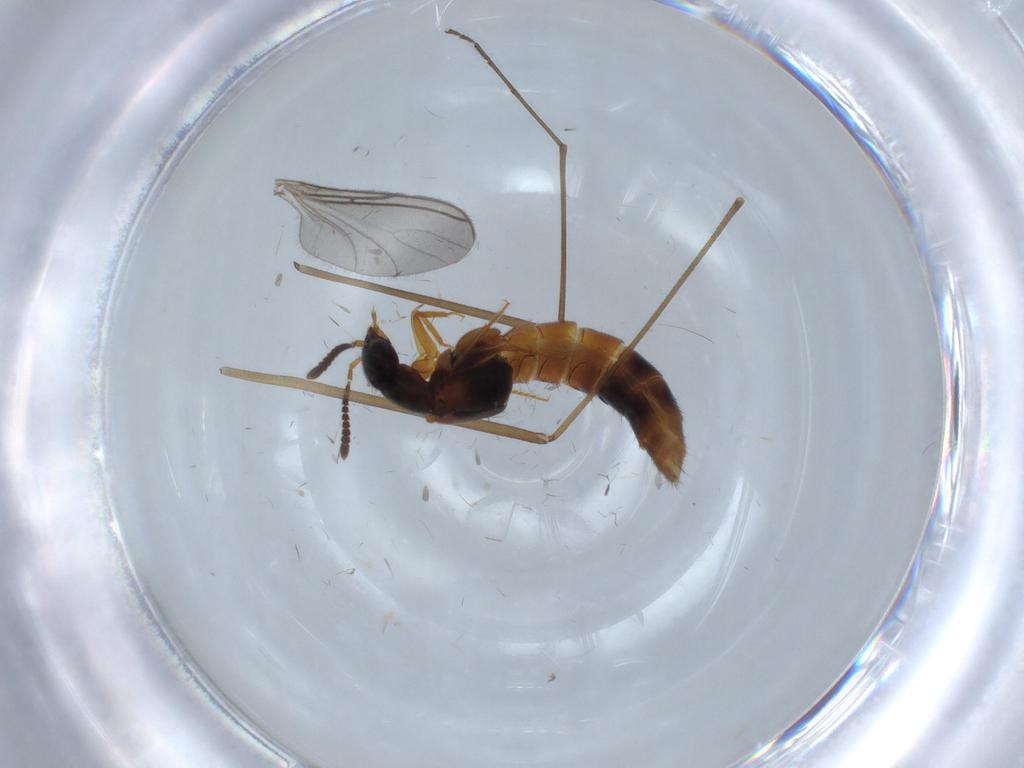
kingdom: Animalia
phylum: Arthropoda
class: Insecta
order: Coleoptera
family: Staphylinidae
